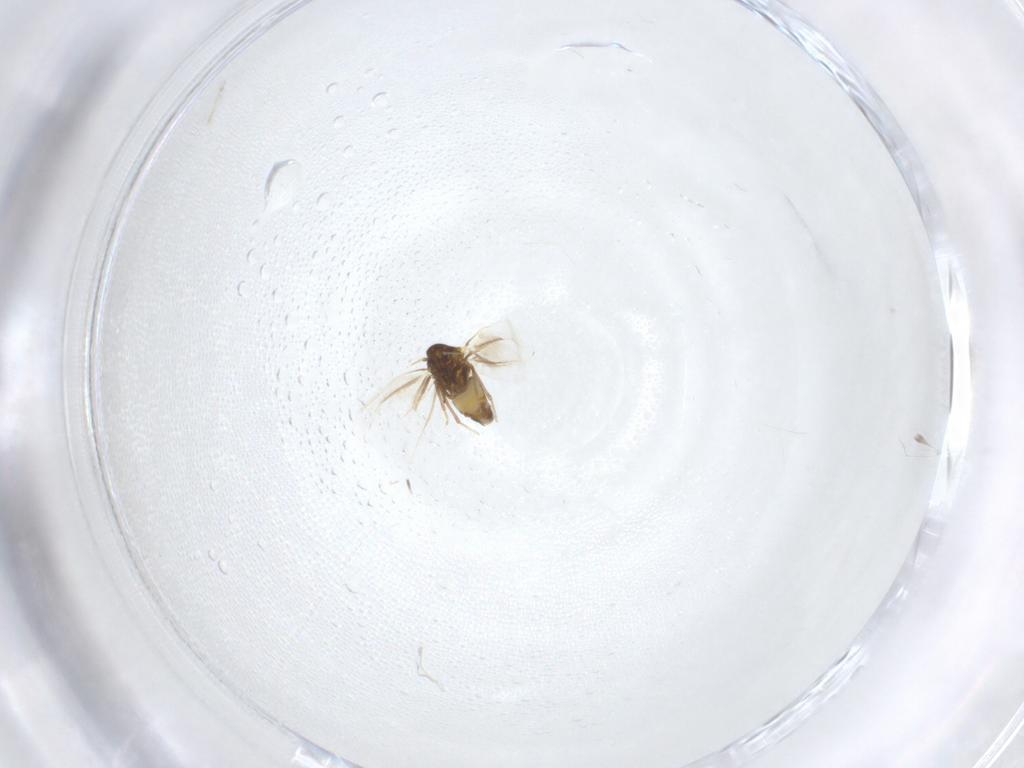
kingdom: Animalia
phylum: Arthropoda
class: Insecta
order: Hemiptera
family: Aleyrodidae
